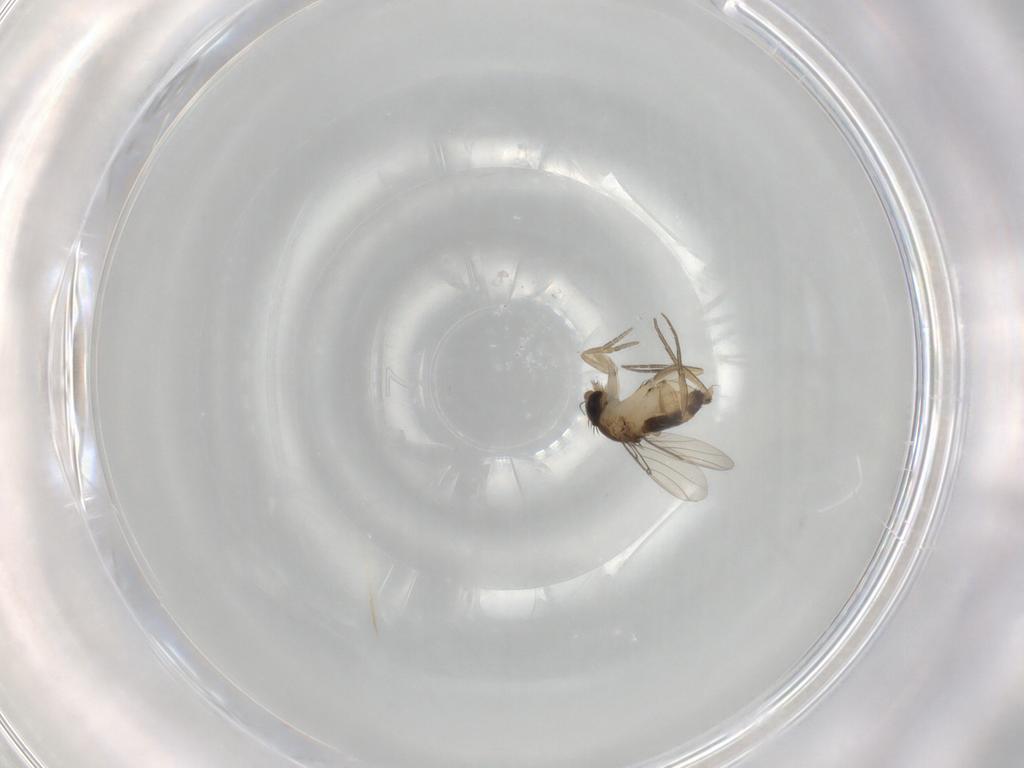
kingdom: Animalia
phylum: Arthropoda
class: Insecta
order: Diptera
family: Phoridae
